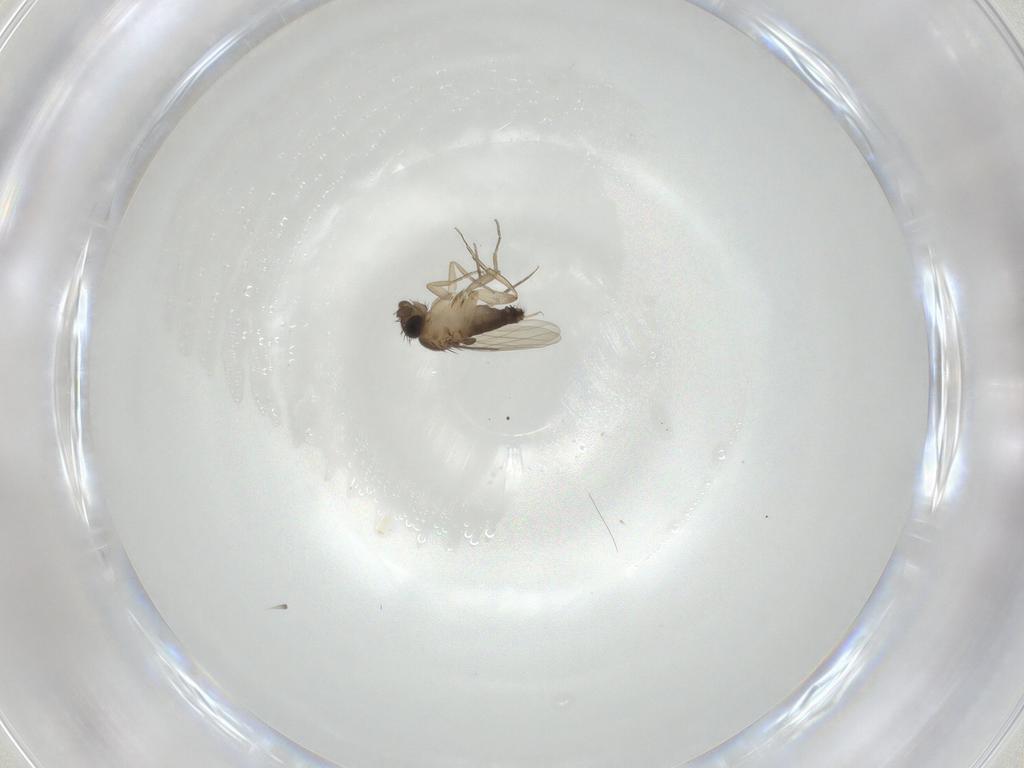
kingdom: Animalia
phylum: Arthropoda
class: Insecta
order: Diptera
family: Phoridae
